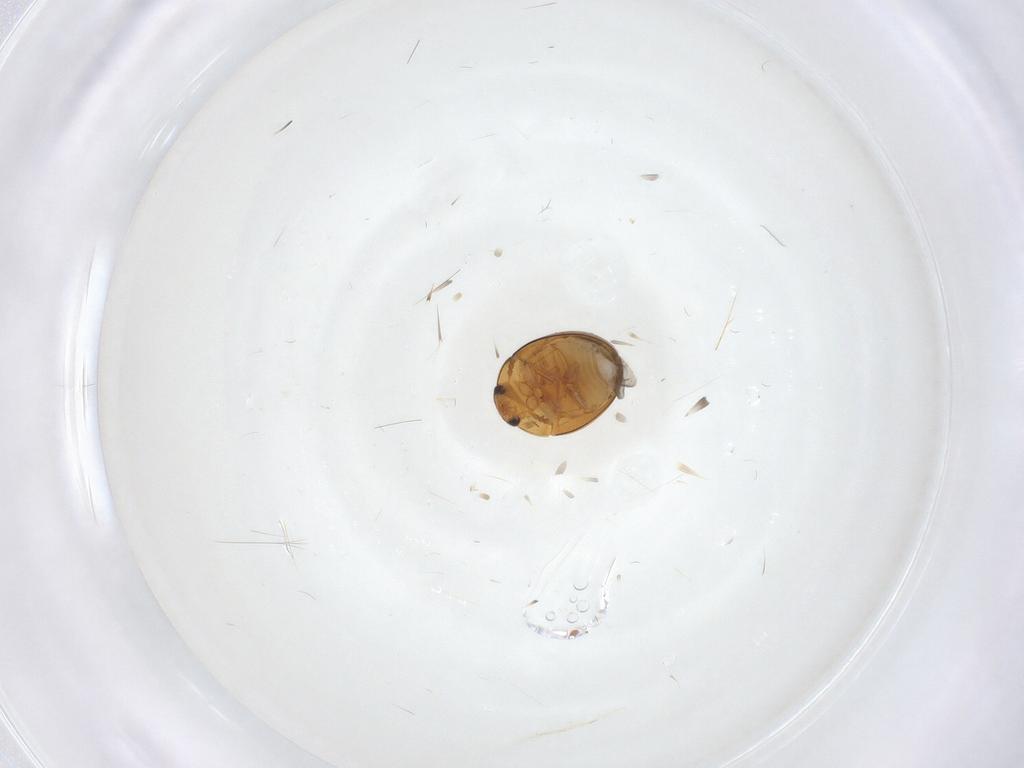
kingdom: Animalia
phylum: Arthropoda
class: Insecta
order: Coleoptera
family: Phalacridae
